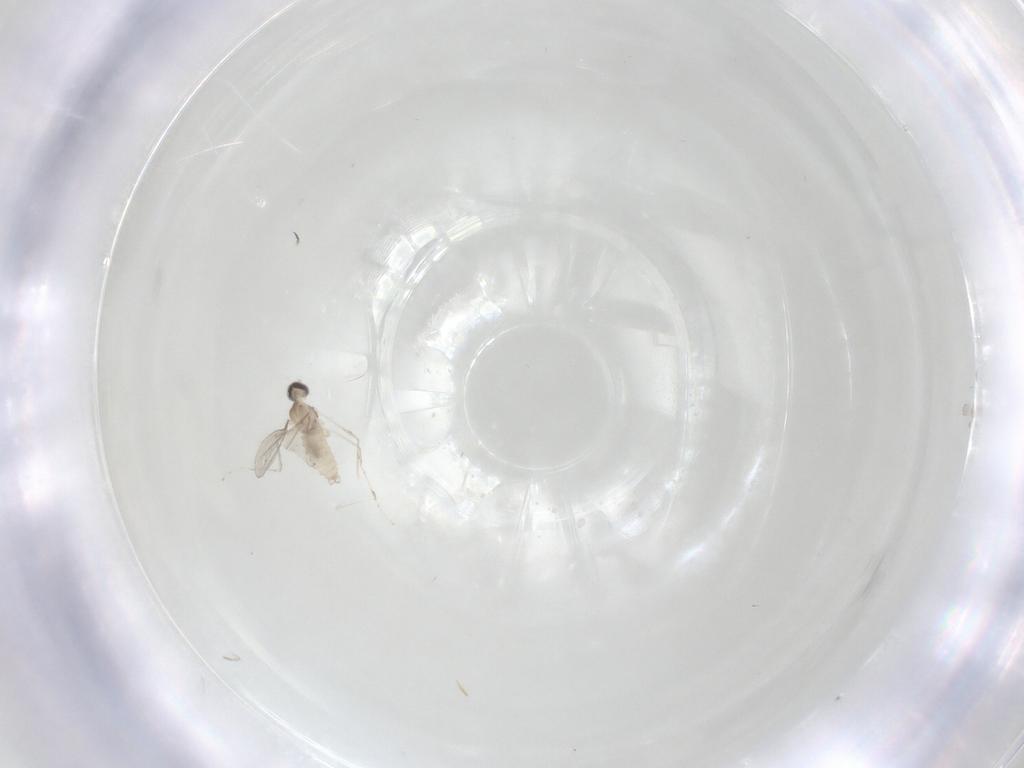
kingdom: Animalia
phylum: Arthropoda
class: Insecta
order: Diptera
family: Cecidomyiidae
